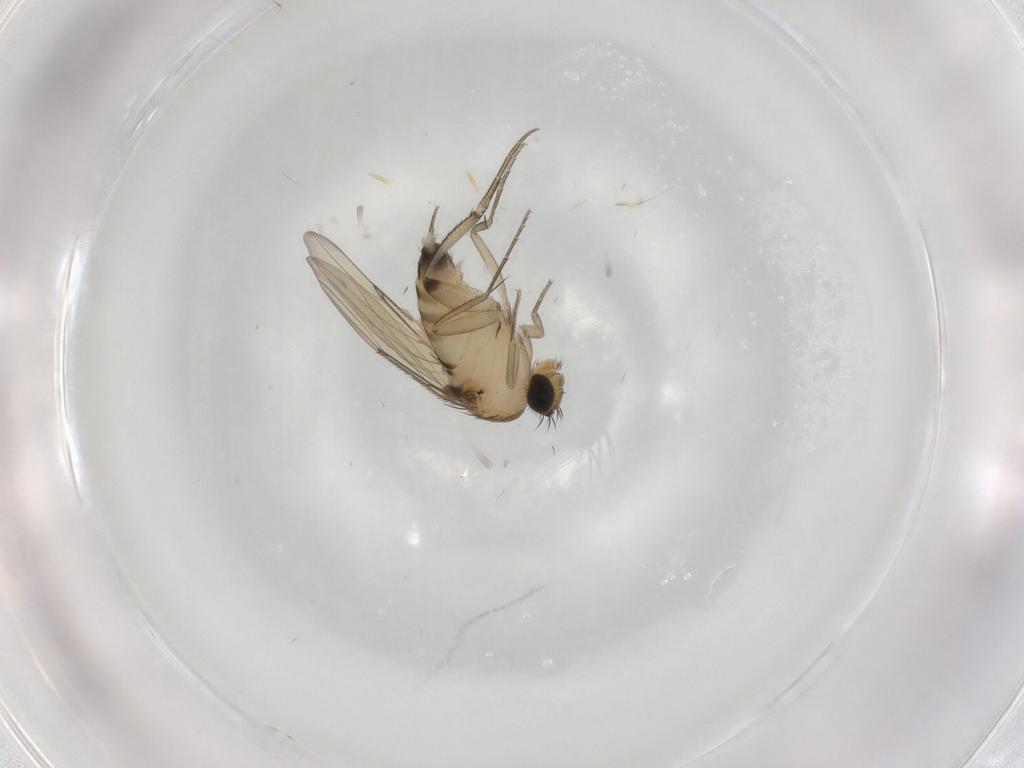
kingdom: Animalia
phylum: Arthropoda
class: Insecta
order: Diptera
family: Phoridae
